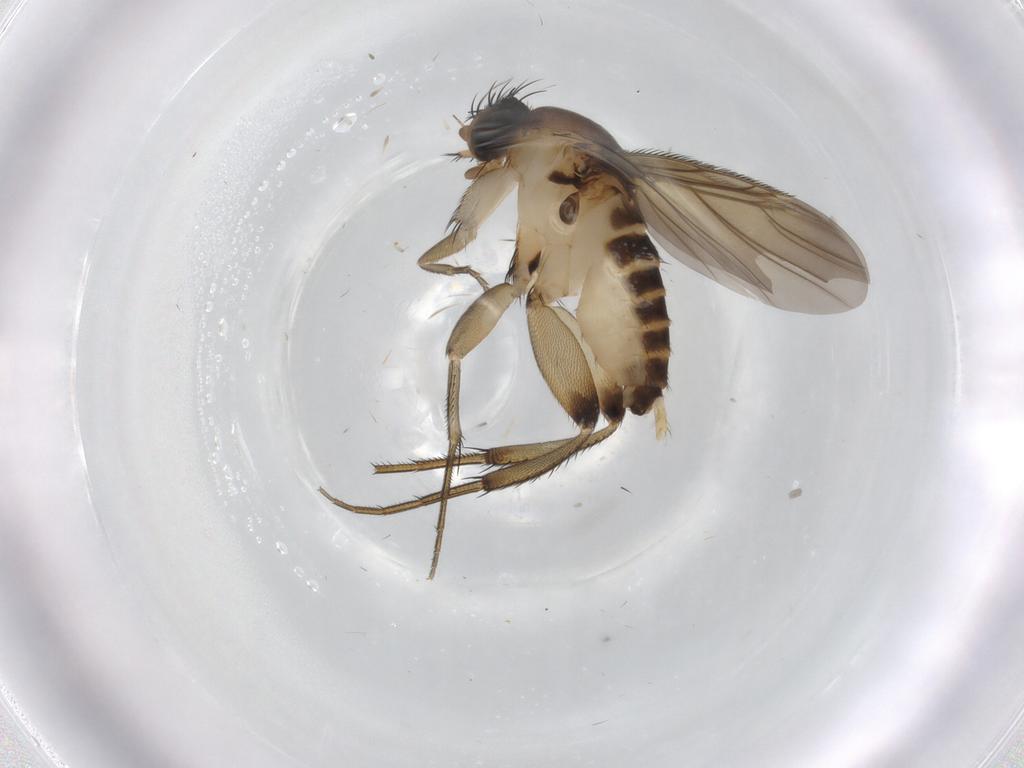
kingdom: Animalia
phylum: Arthropoda
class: Insecta
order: Diptera
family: Phoridae
